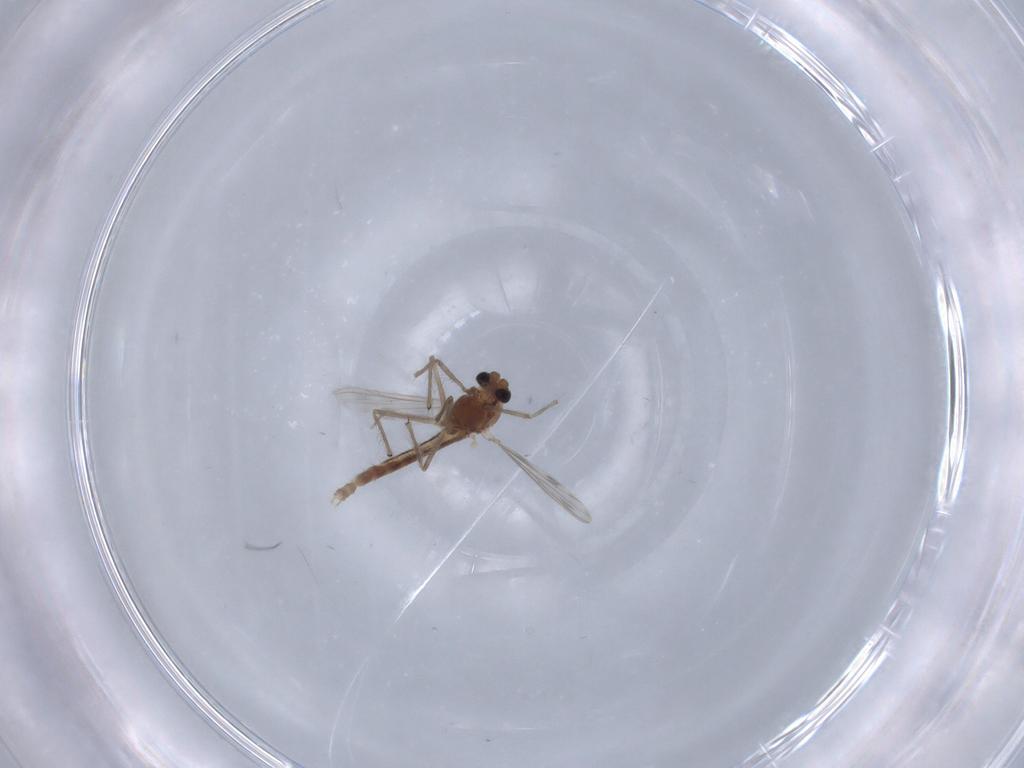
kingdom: Animalia
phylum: Arthropoda
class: Insecta
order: Diptera
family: Chironomidae
